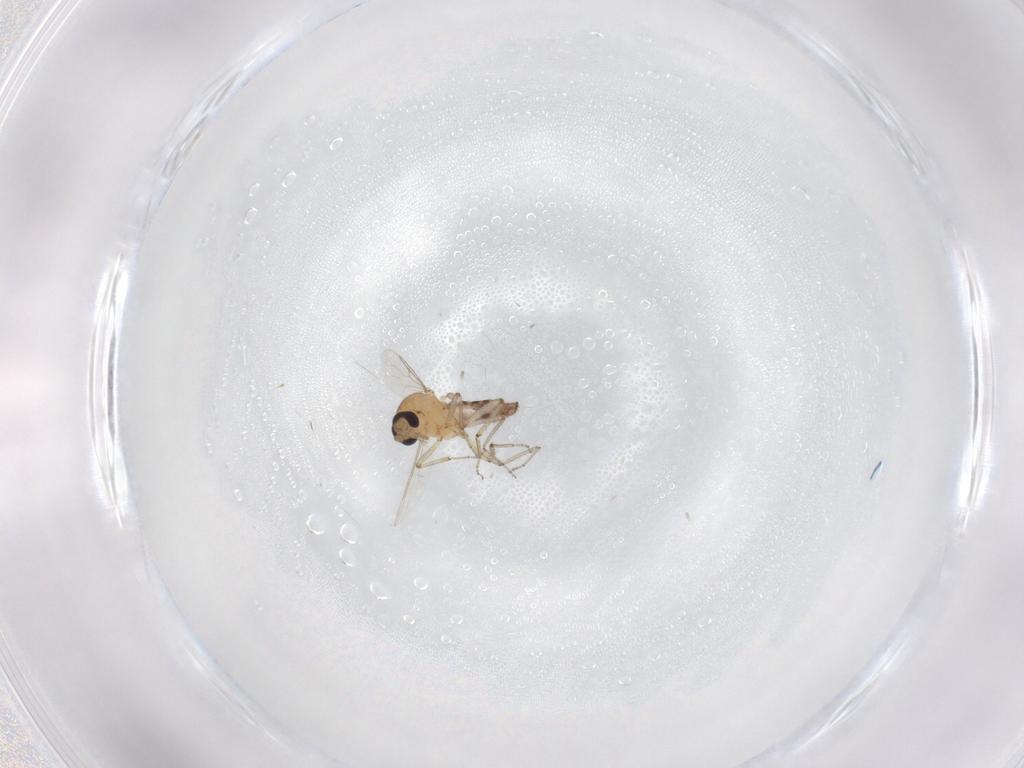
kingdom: Animalia
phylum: Arthropoda
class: Insecta
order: Diptera
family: Ceratopogonidae
